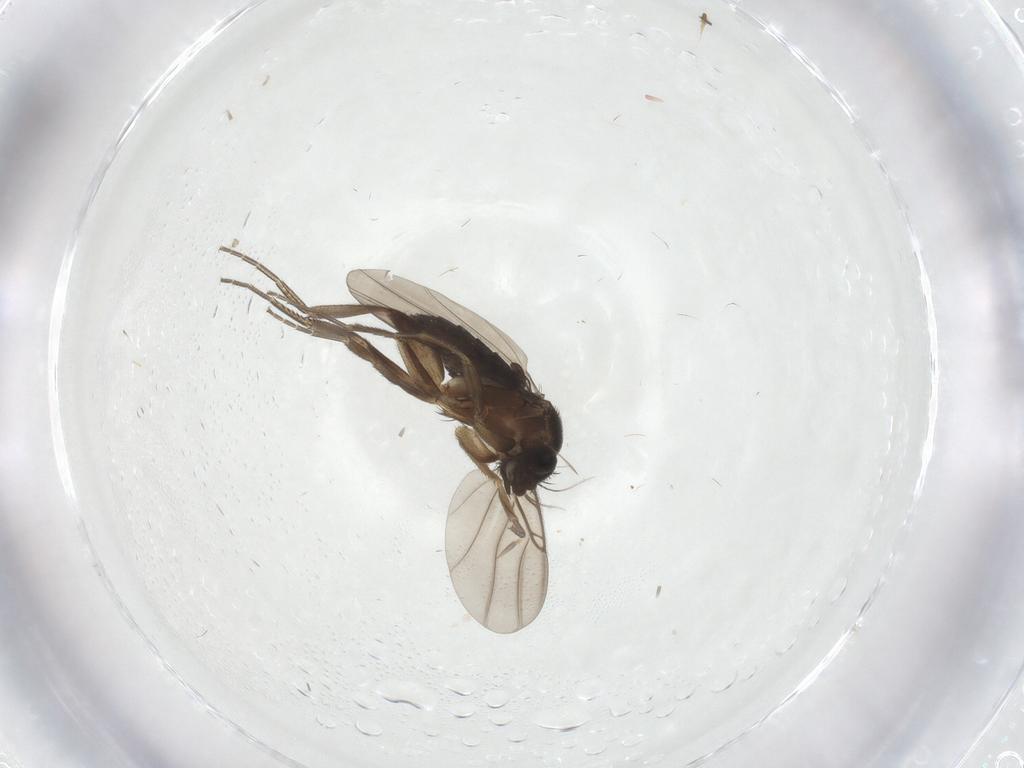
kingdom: Animalia
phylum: Arthropoda
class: Insecta
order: Diptera
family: Phoridae
